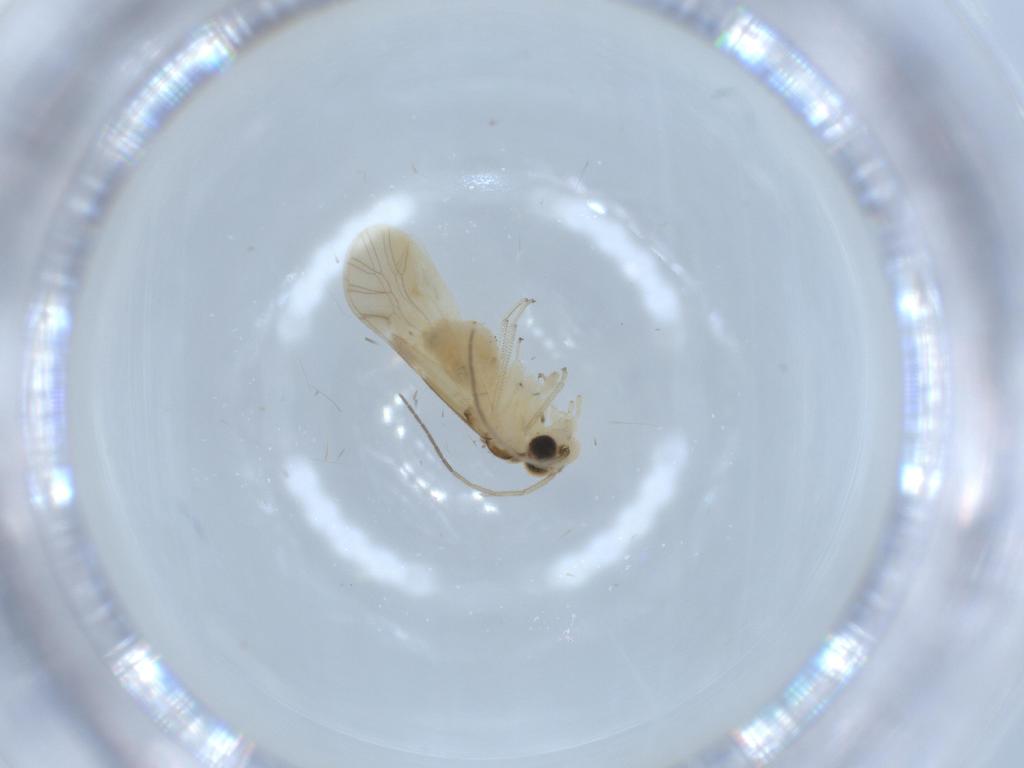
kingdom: Animalia
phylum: Arthropoda
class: Insecta
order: Psocodea
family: Caeciliusidae
